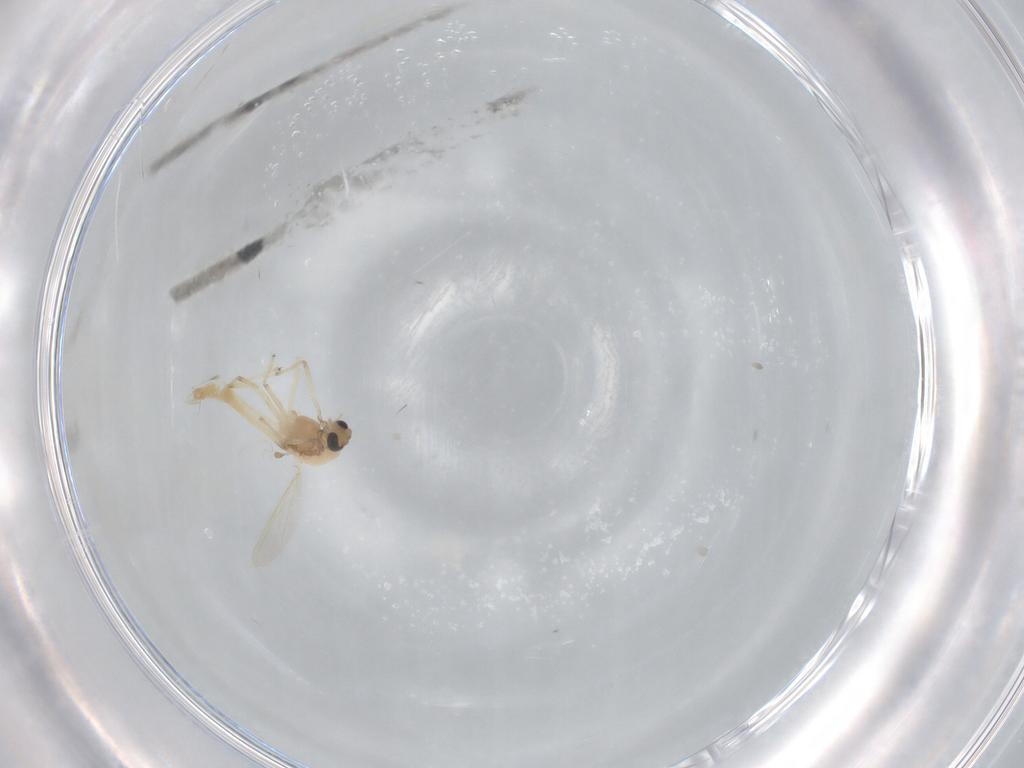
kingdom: Animalia
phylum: Arthropoda
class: Insecta
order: Diptera
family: Chironomidae
